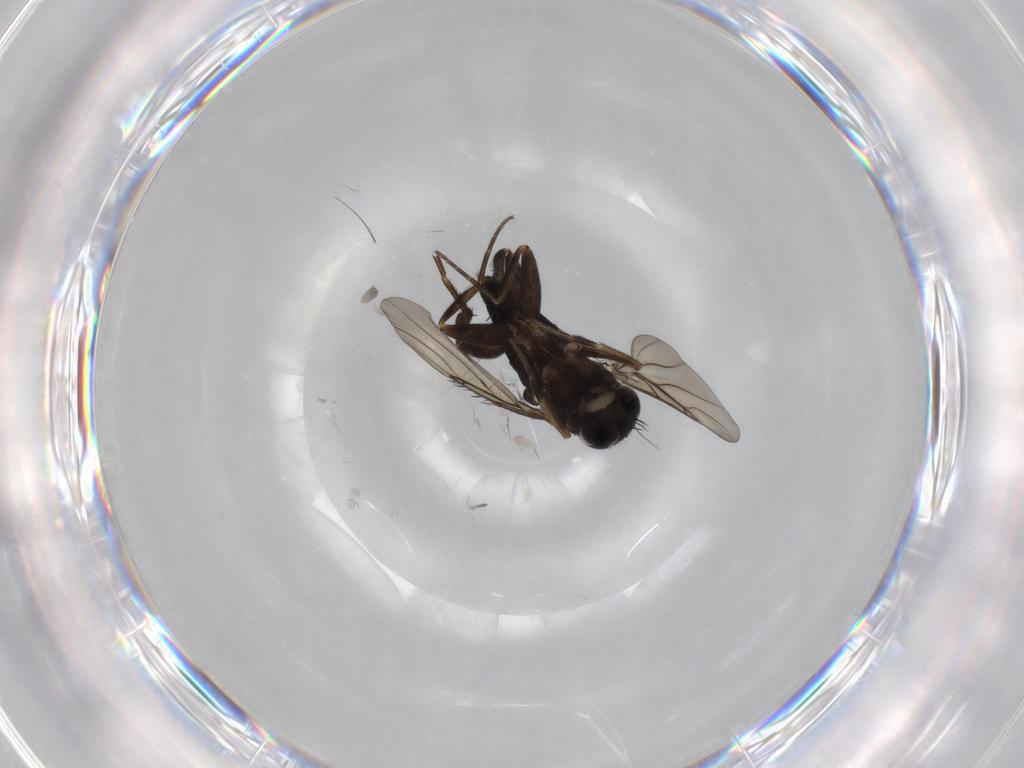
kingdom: Animalia
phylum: Arthropoda
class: Insecta
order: Diptera
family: Phoridae
